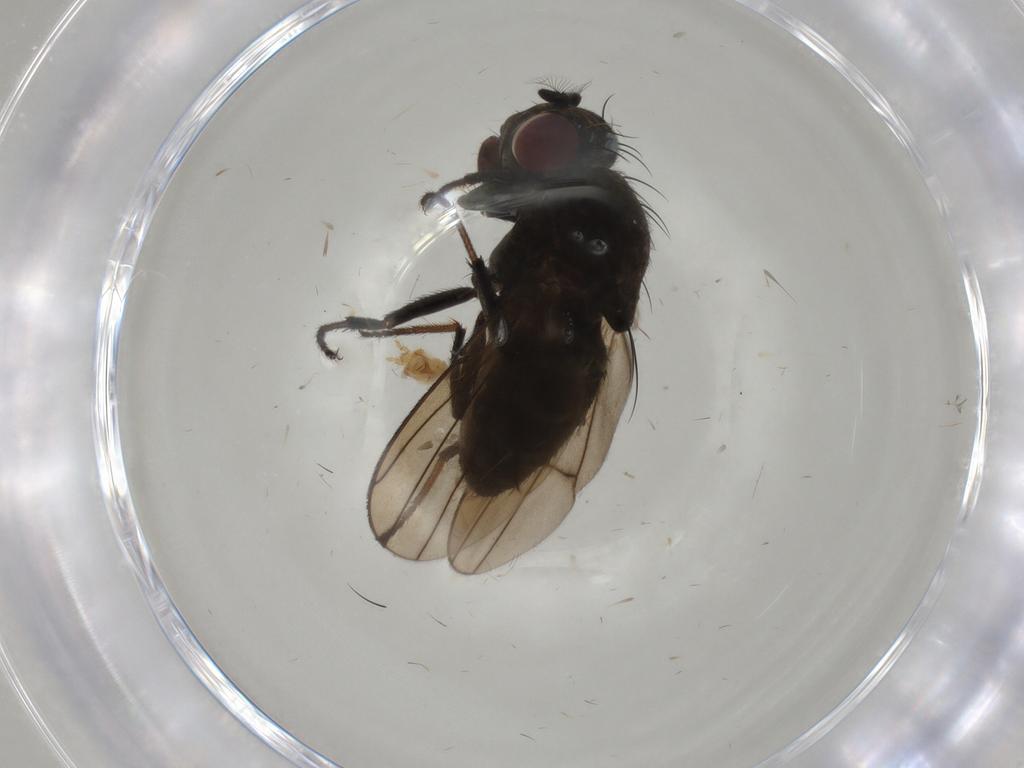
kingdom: Animalia
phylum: Arthropoda
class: Insecta
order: Diptera
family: Ephydridae
